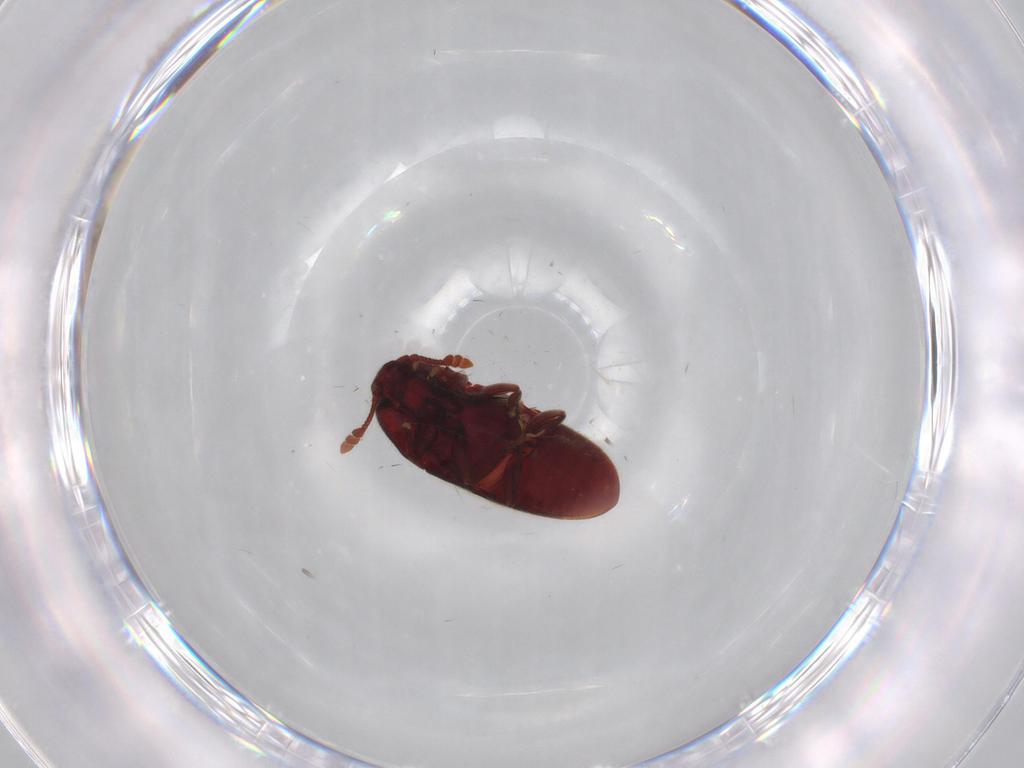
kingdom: Animalia
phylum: Arthropoda
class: Insecta
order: Coleoptera
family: Throscidae
